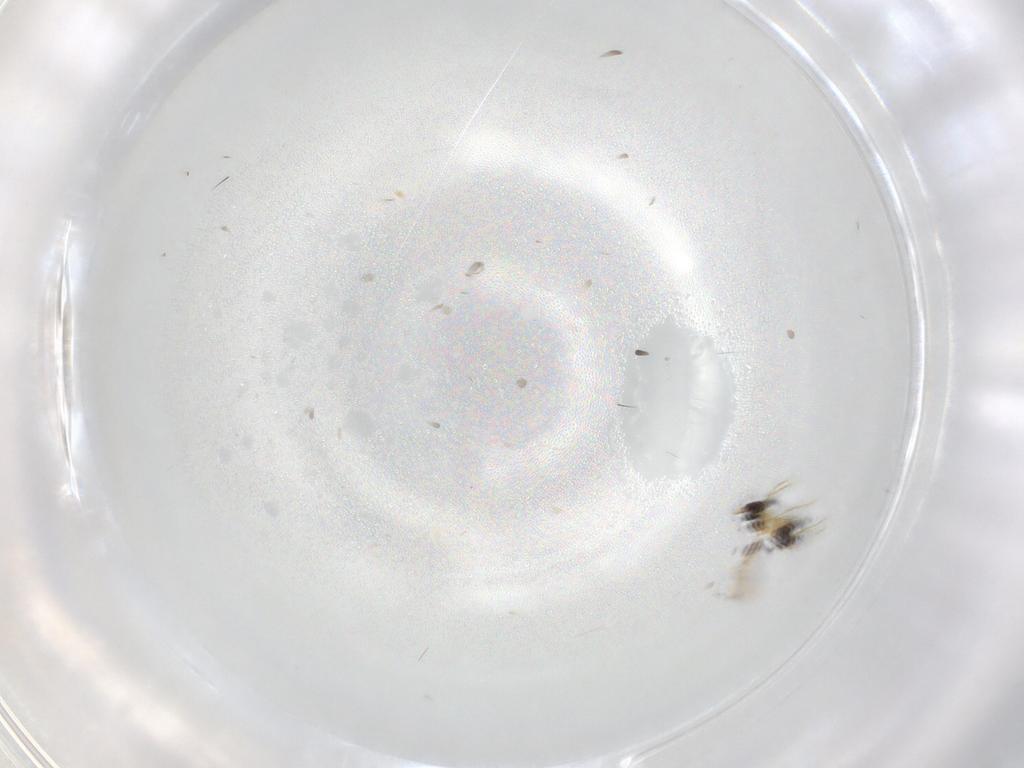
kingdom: Animalia
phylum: Arthropoda
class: Insecta
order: Hymenoptera
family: Mymaridae
